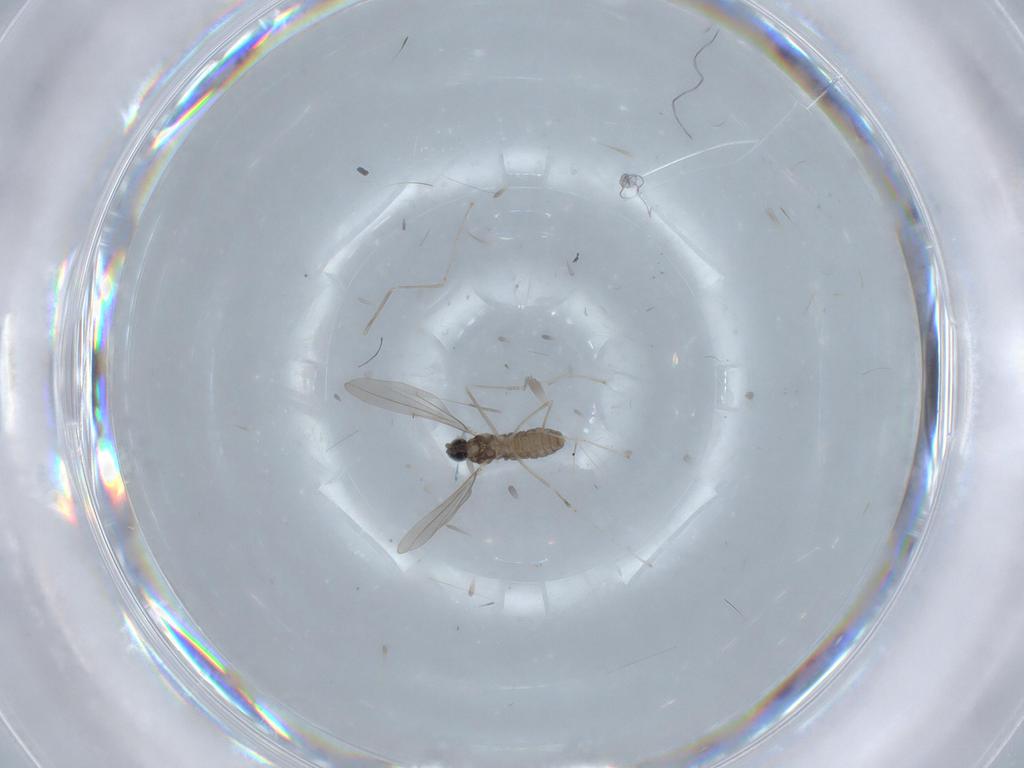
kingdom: Animalia
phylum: Arthropoda
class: Insecta
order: Diptera
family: Cecidomyiidae
